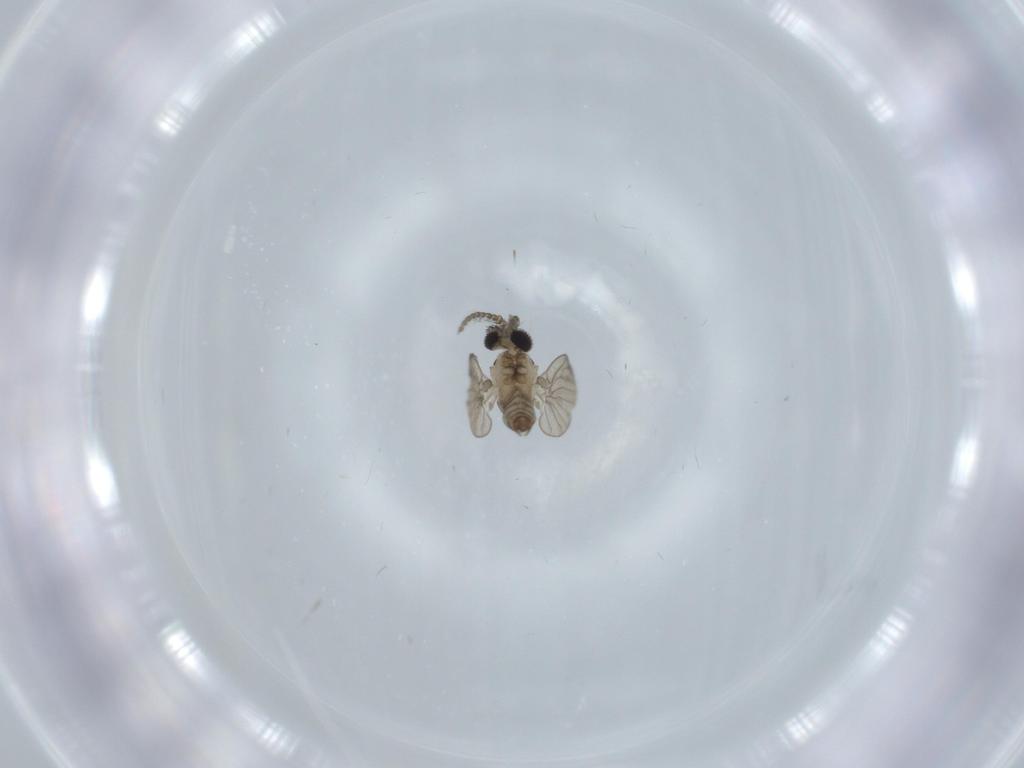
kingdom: Animalia
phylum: Arthropoda
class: Insecta
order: Diptera
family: Cecidomyiidae
